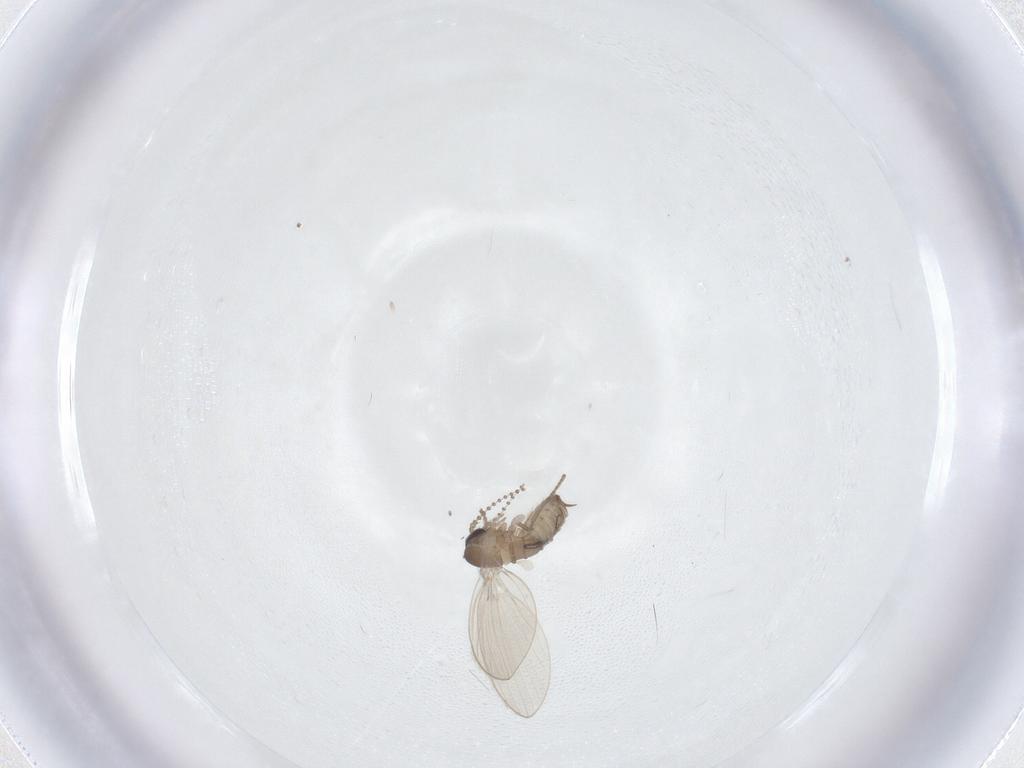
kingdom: Animalia
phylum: Arthropoda
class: Insecta
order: Diptera
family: Psychodidae
